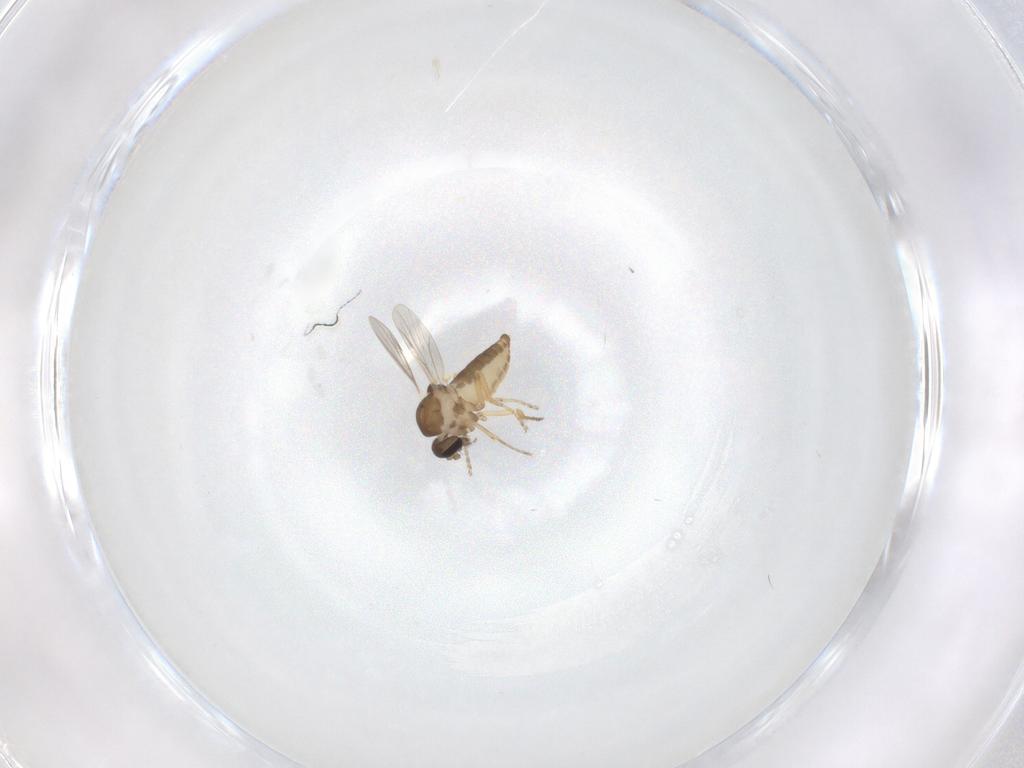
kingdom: Animalia
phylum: Arthropoda
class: Insecta
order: Diptera
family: Ceratopogonidae
